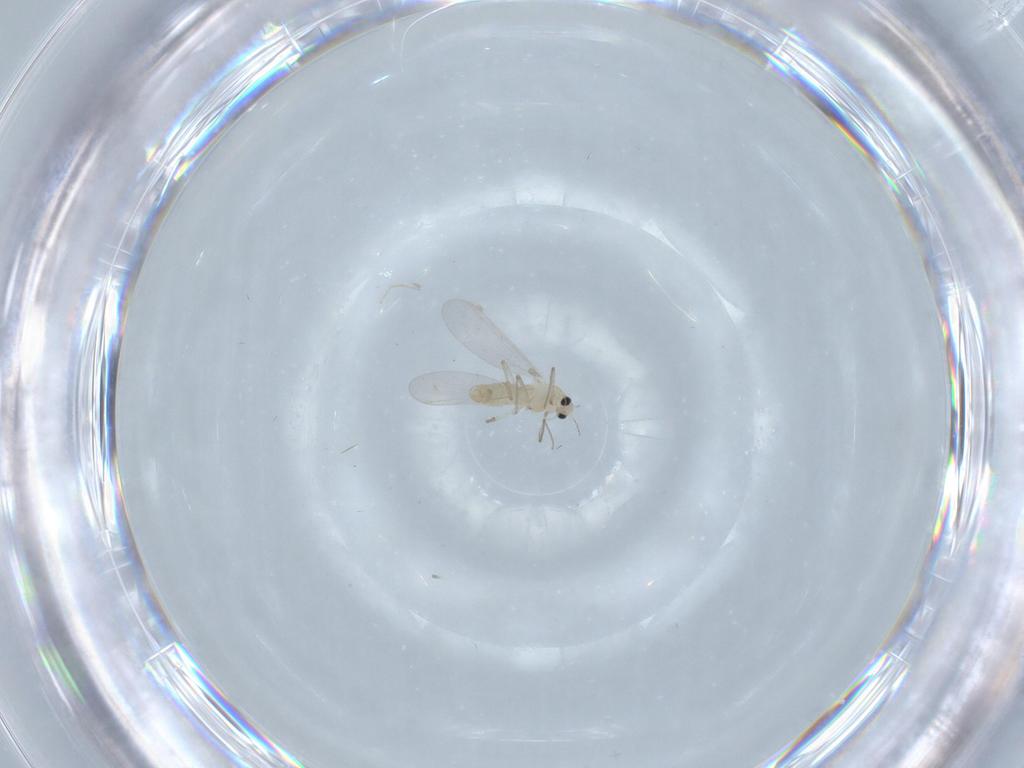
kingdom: Animalia
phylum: Arthropoda
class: Insecta
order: Diptera
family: Chironomidae
